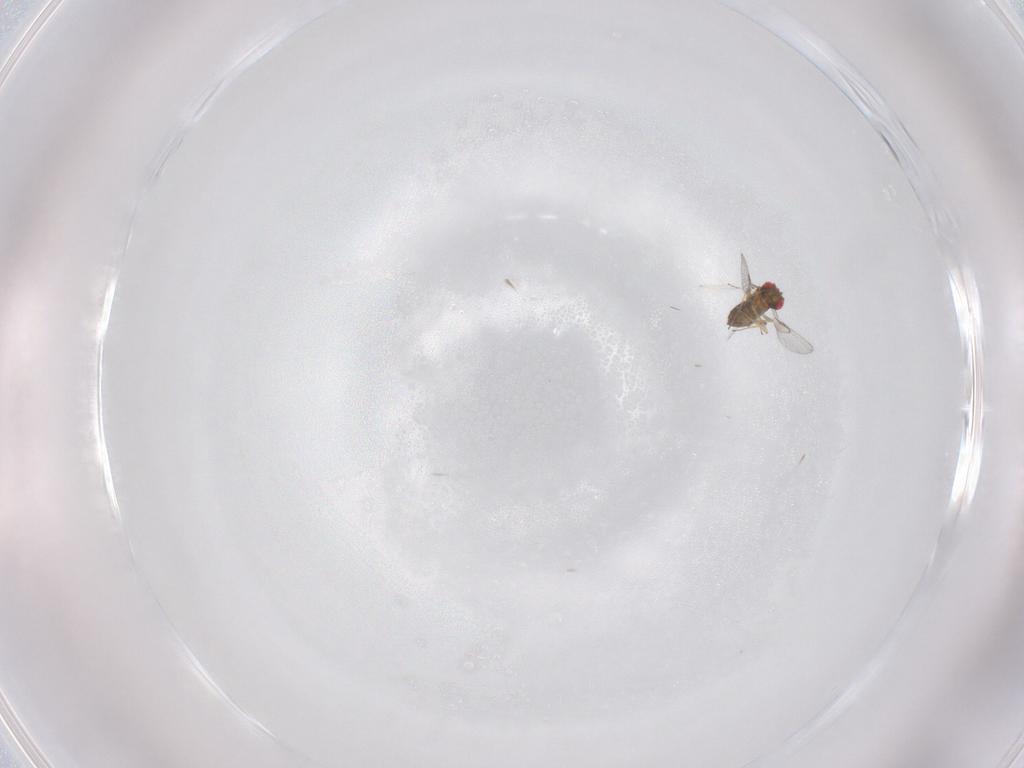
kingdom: Animalia
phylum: Arthropoda
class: Insecta
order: Hymenoptera
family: Trichogrammatidae
